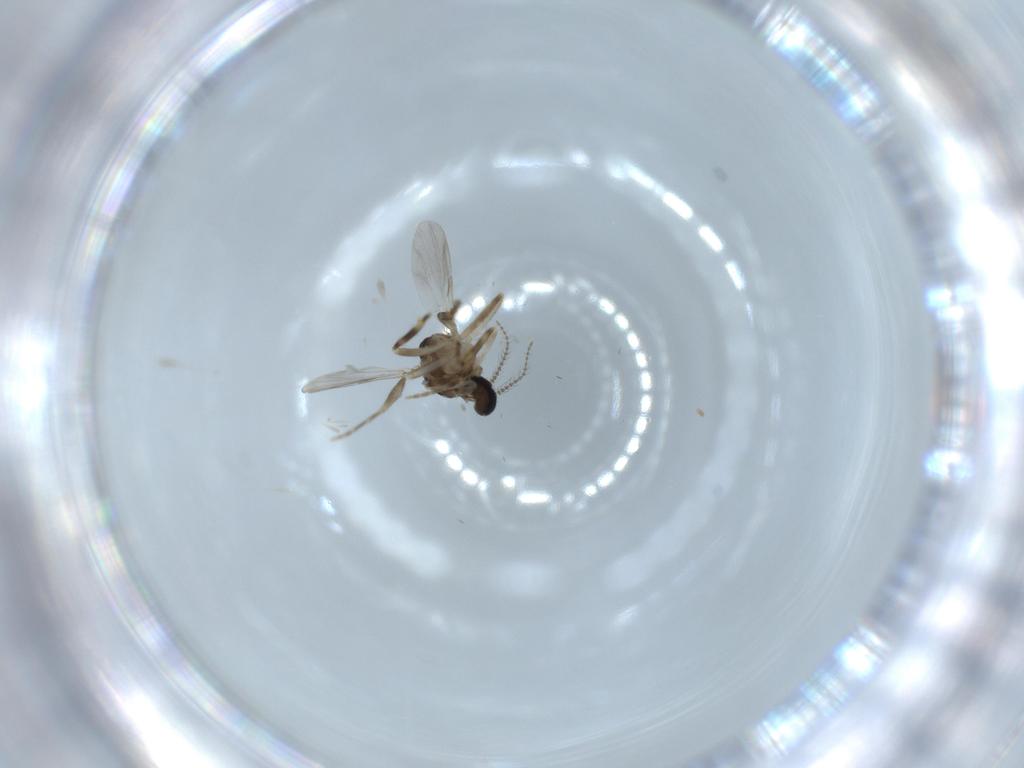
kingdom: Animalia
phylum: Arthropoda
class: Insecta
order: Diptera
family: Ceratopogonidae
